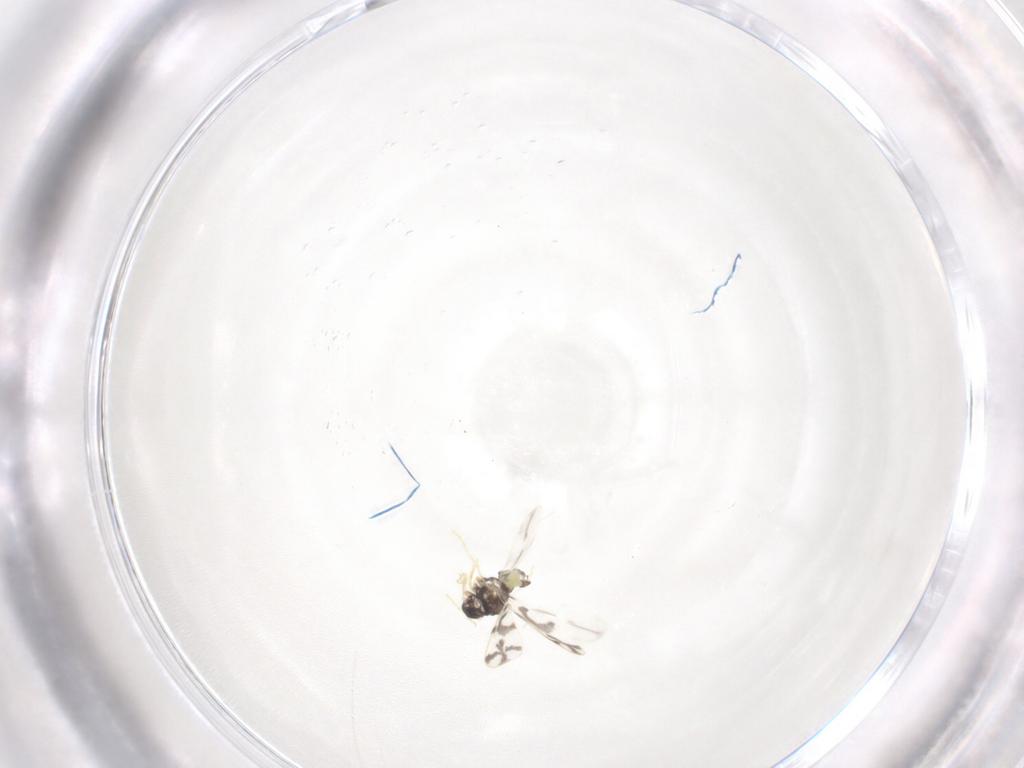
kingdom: Animalia
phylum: Arthropoda
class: Insecta
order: Hemiptera
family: Aleyrodidae
